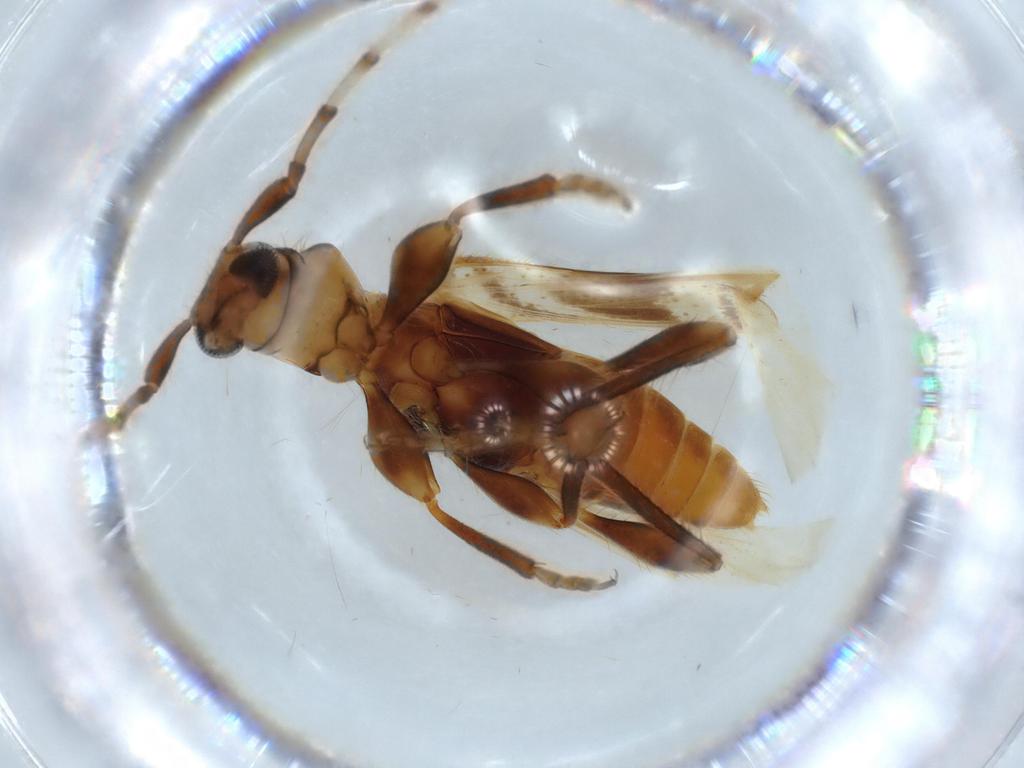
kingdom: Animalia
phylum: Arthropoda
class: Insecta
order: Coleoptera
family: Cerambycidae
